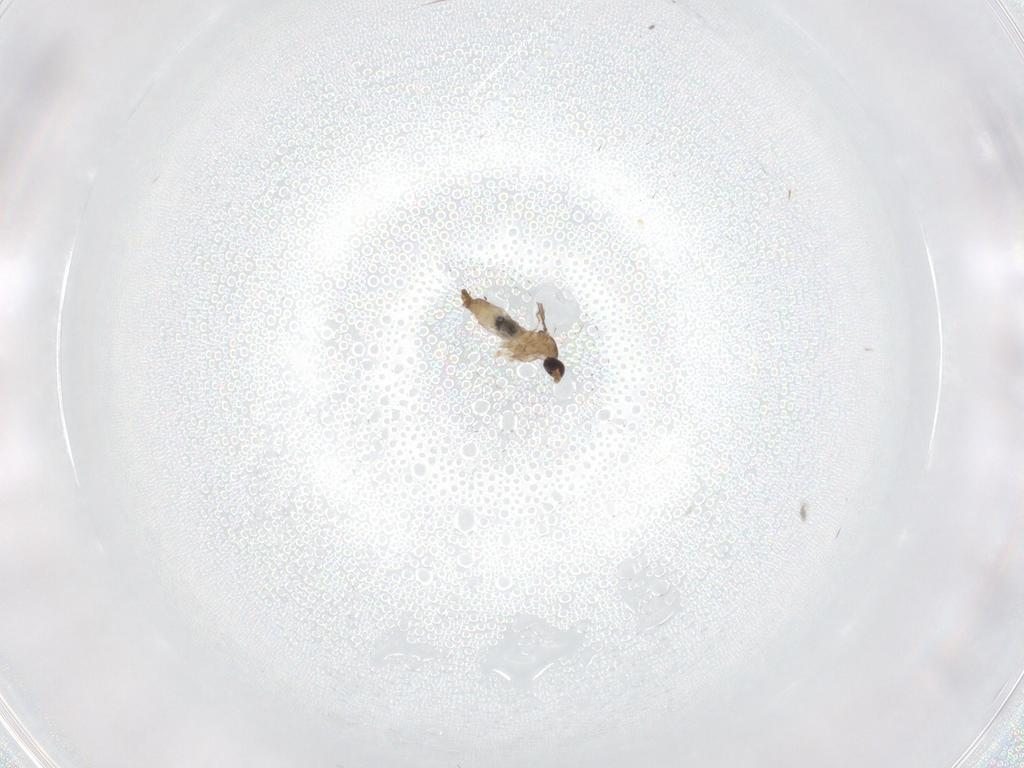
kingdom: Animalia
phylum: Arthropoda
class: Insecta
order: Diptera
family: Cecidomyiidae
